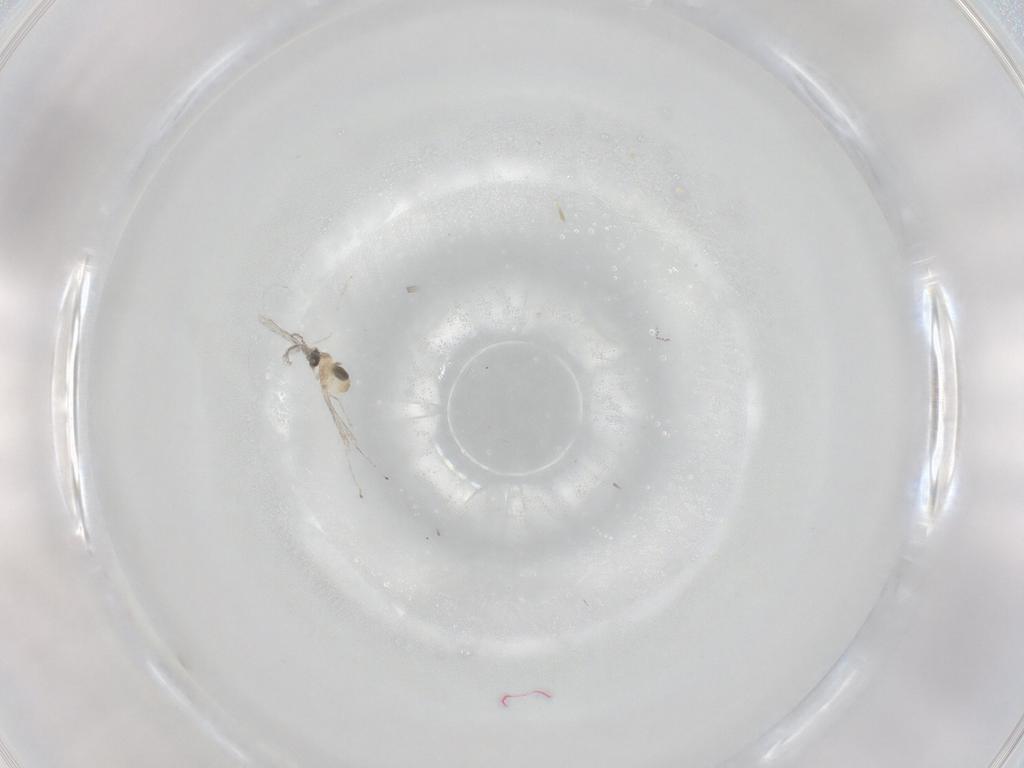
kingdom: Animalia
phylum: Arthropoda
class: Insecta
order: Diptera
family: Cecidomyiidae
